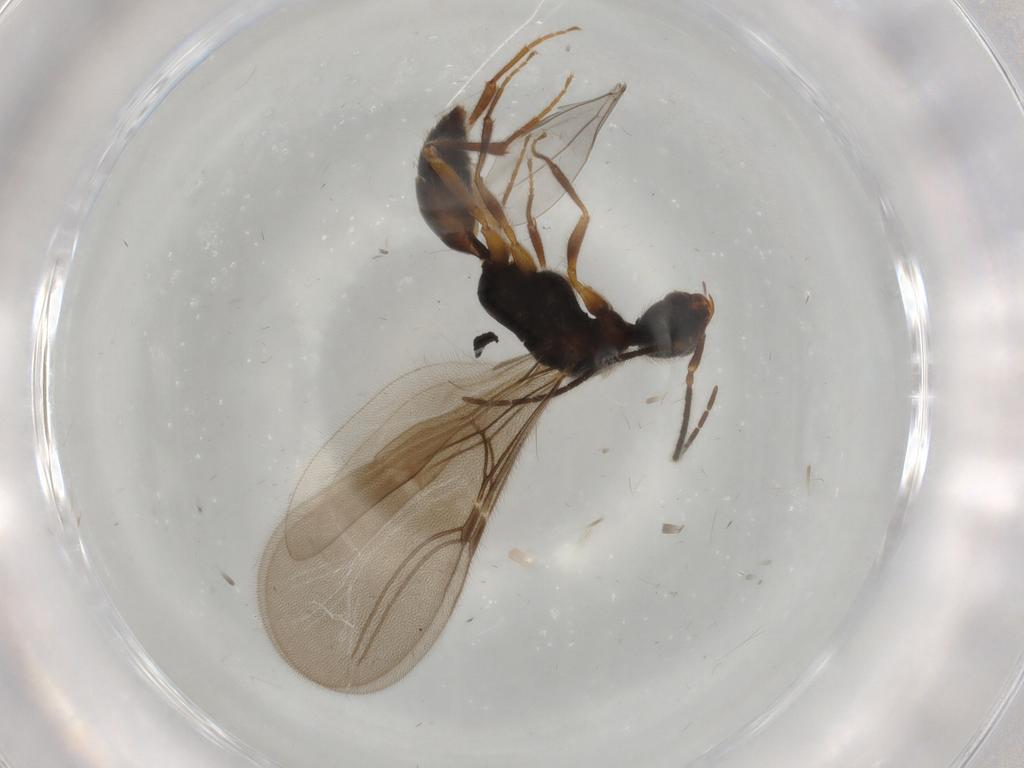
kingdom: Animalia
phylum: Arthropoda
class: Insecta
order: Hymenoptera
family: Bethylidae
